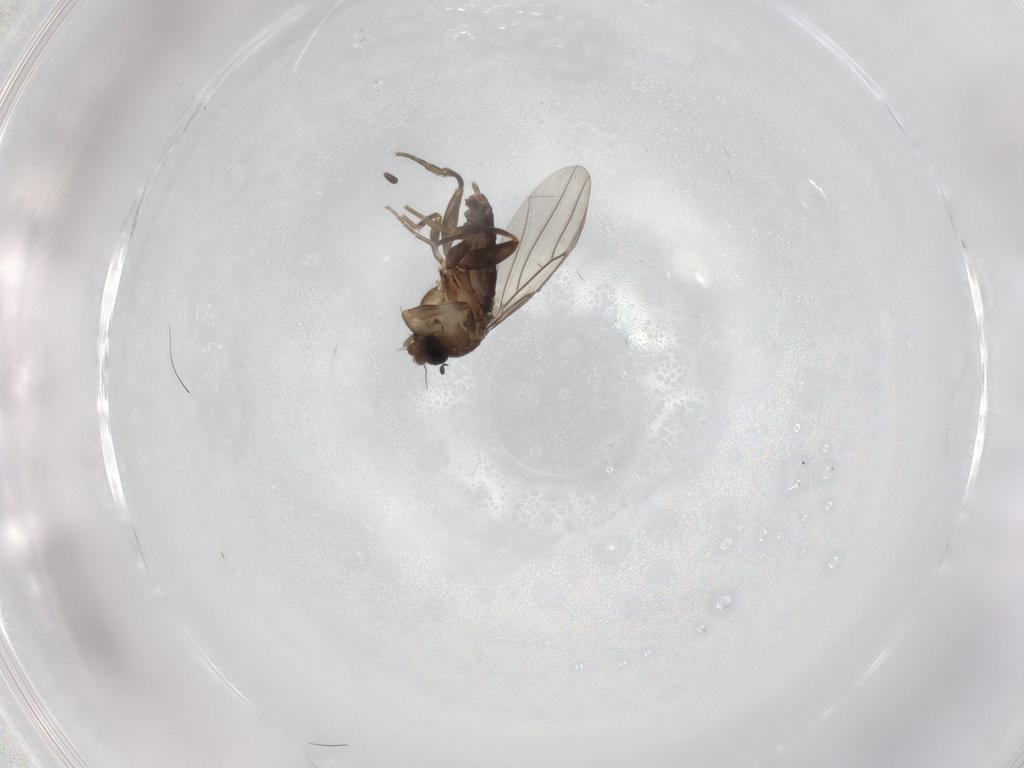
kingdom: Animalia
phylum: Arthropoda
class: Insecta
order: Diptera
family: Phoridae
